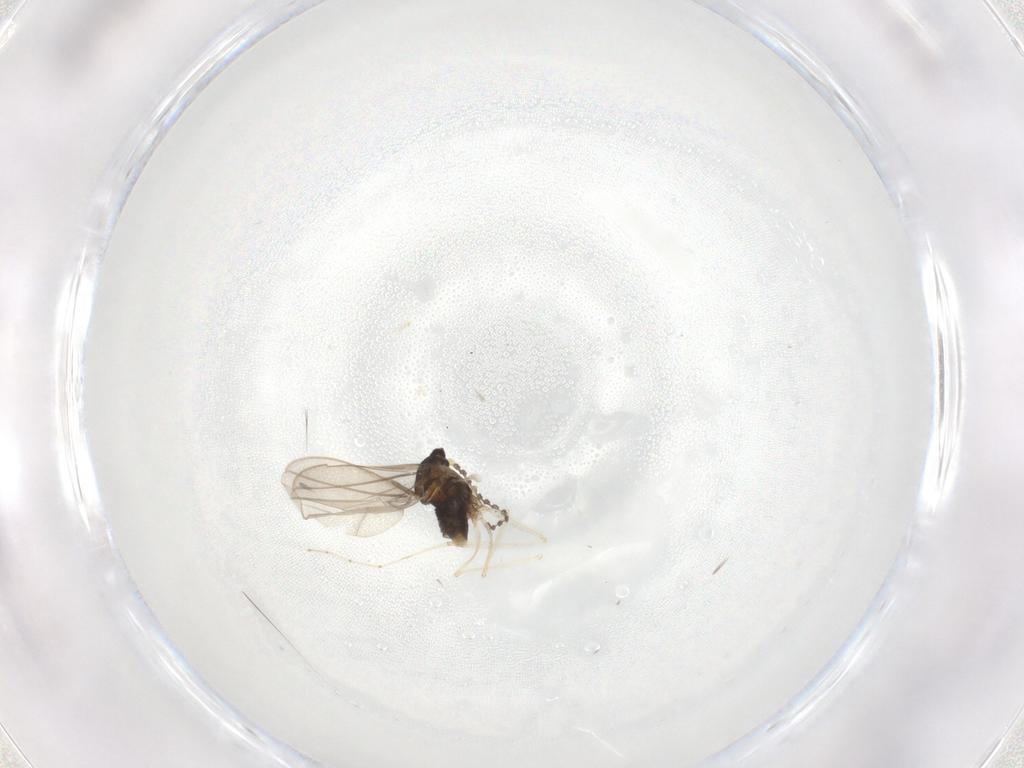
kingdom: Animalia
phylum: Arthropoda
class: Insecta
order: Diptera
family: Cecidomyiidae
